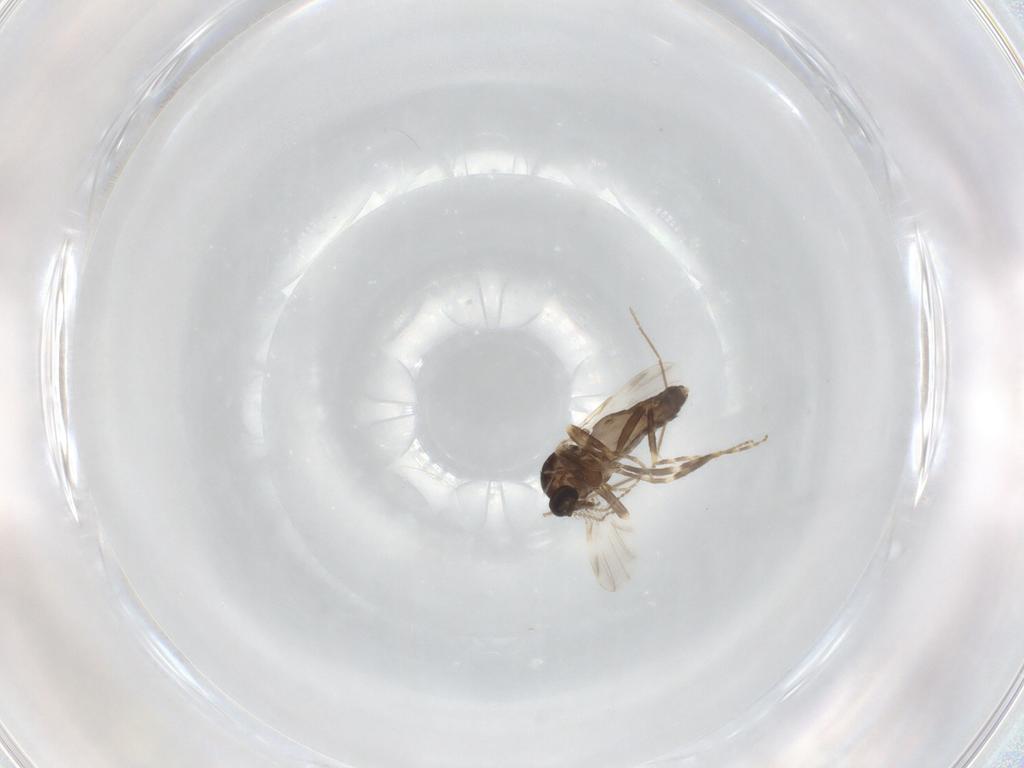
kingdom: Animalia
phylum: Arthropoda
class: Insecta
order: Diptera
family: Ceratopogonidae
